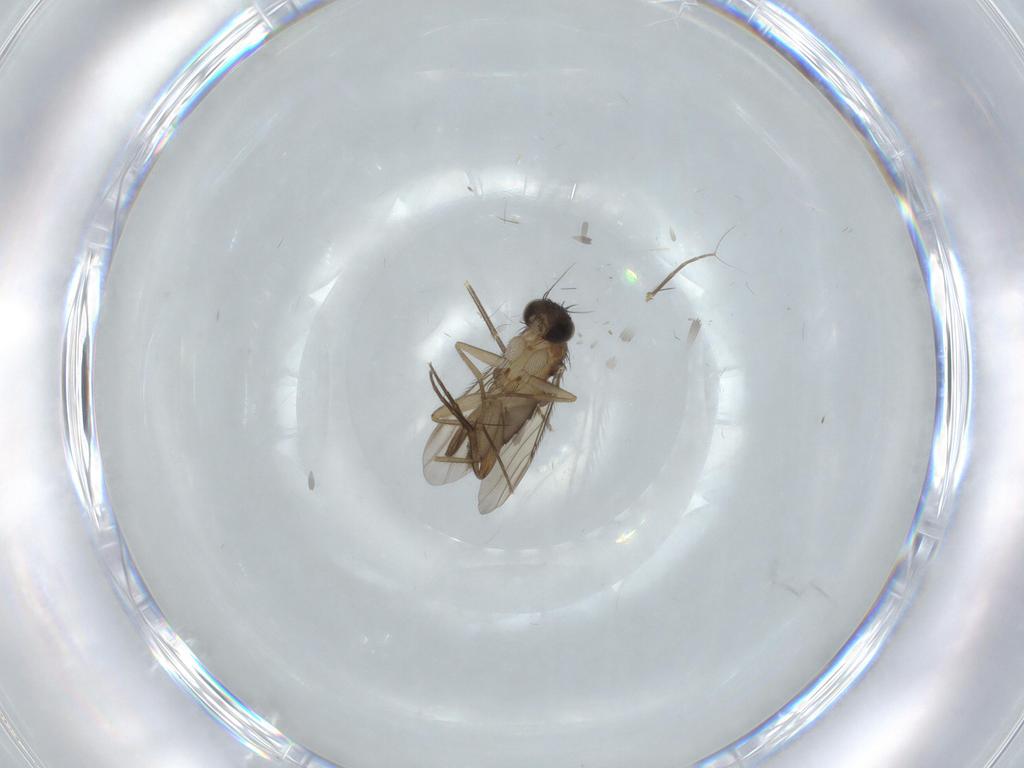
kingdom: Animalia
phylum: Arthropoda
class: Insecta
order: Diptera
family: Phoridae
